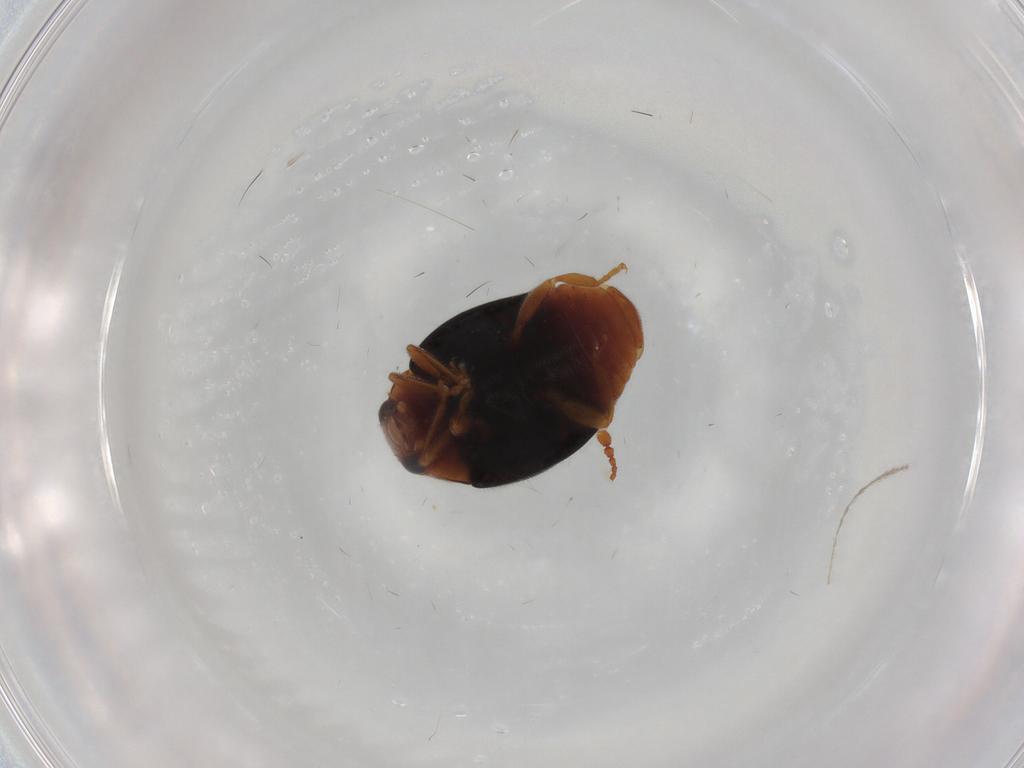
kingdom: Animalia
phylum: Arthropoda
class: Insecta
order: Coleoptera
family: Coccinellidae
